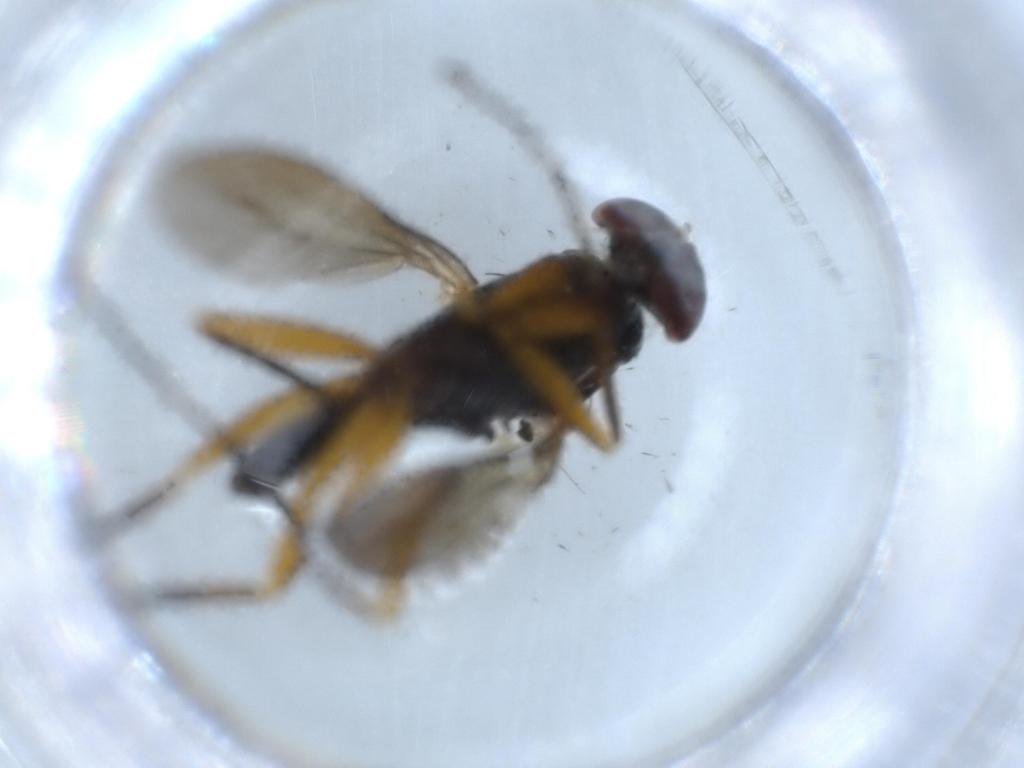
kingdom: Animalia
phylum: Arthropoda
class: Insecta
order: Diptera
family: Dolichopodidae
